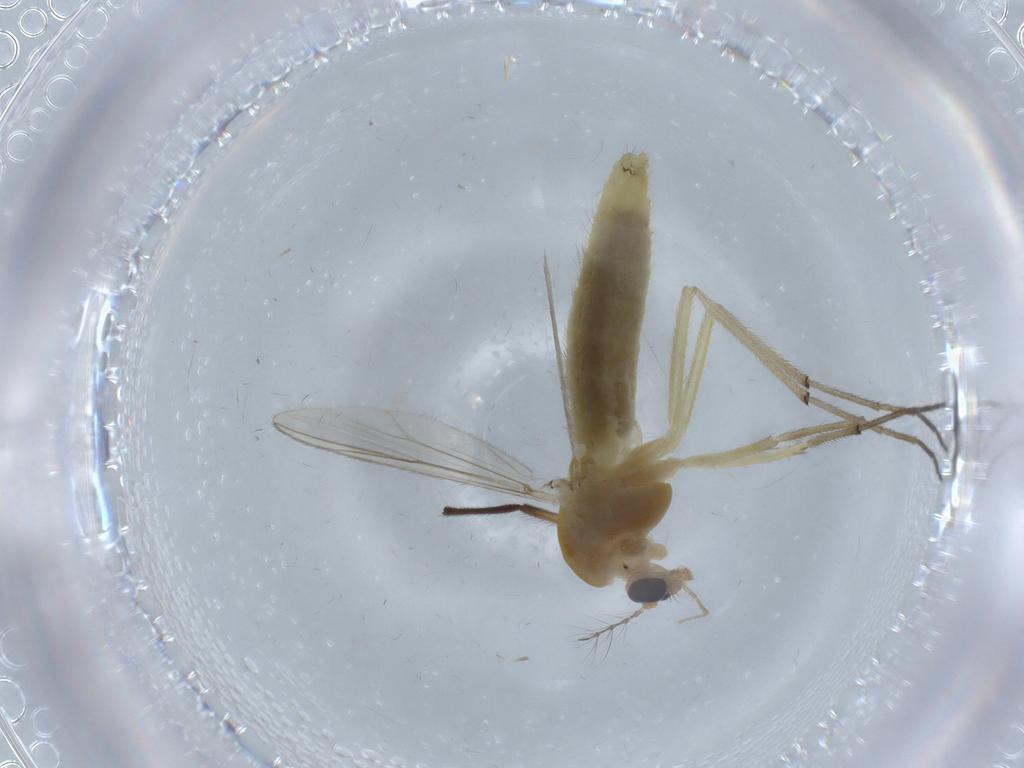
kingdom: Animalia
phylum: Arthropoda
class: Insecta
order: Diptera
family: Chironomidae
